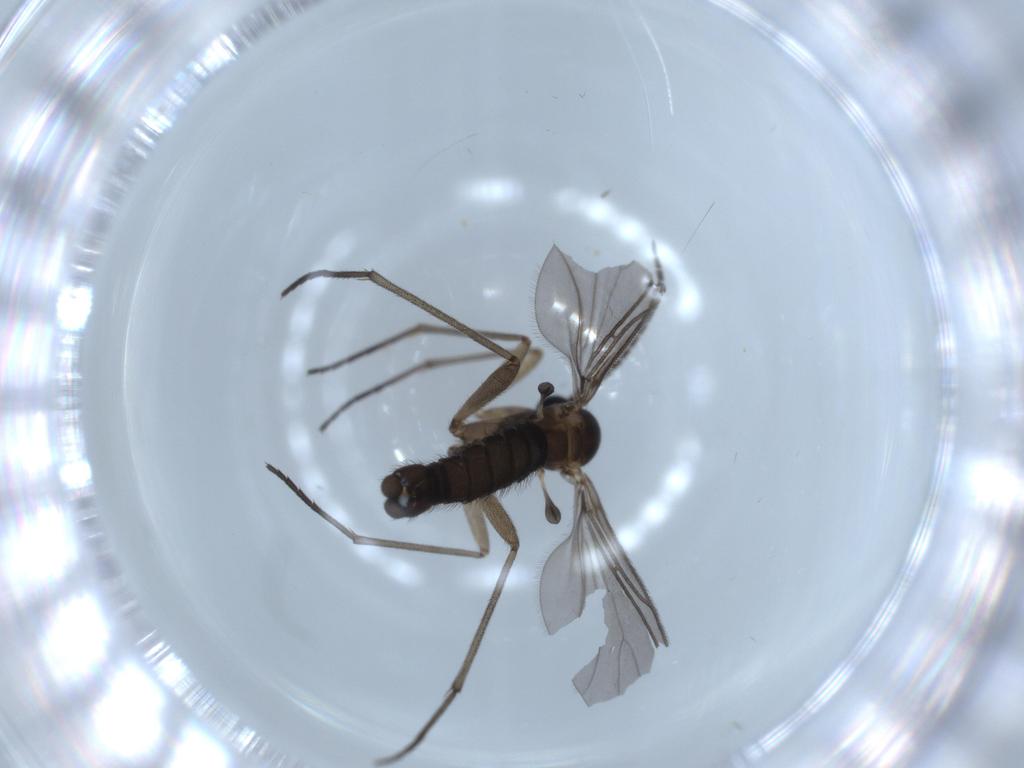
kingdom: Animalia
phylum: Arthropoda
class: Insecta
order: Diptera
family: Sciaridae
